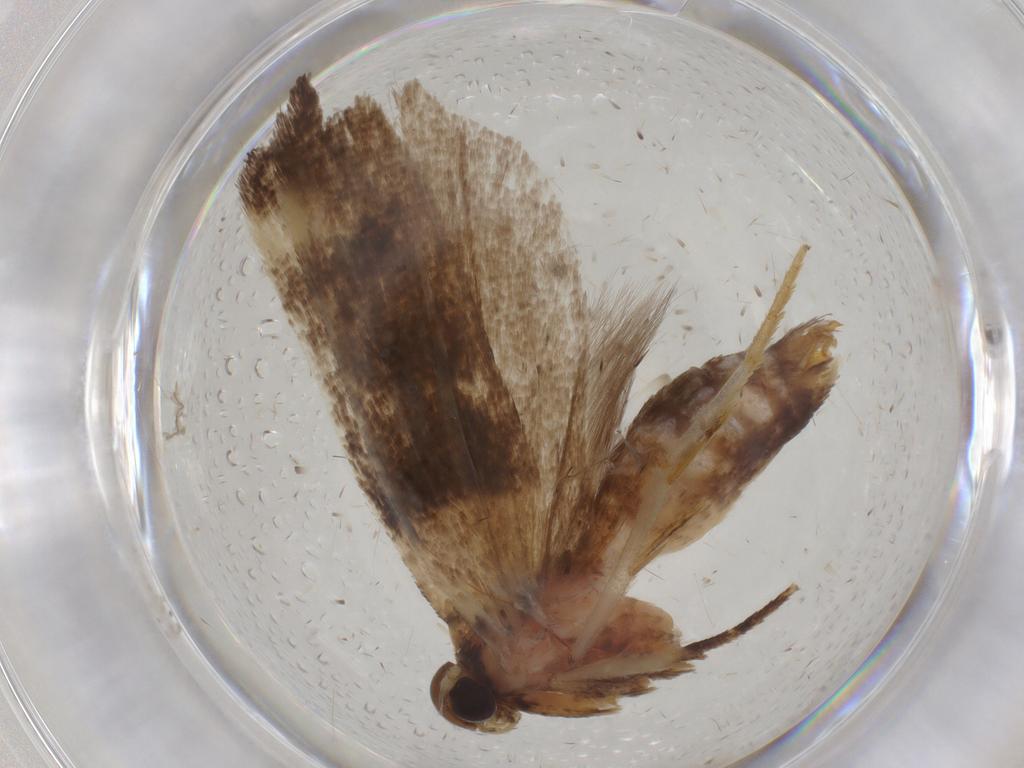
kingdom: Animalia
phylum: Arthropoda
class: Insecta
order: Lepidoptera
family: Gelechiidae
